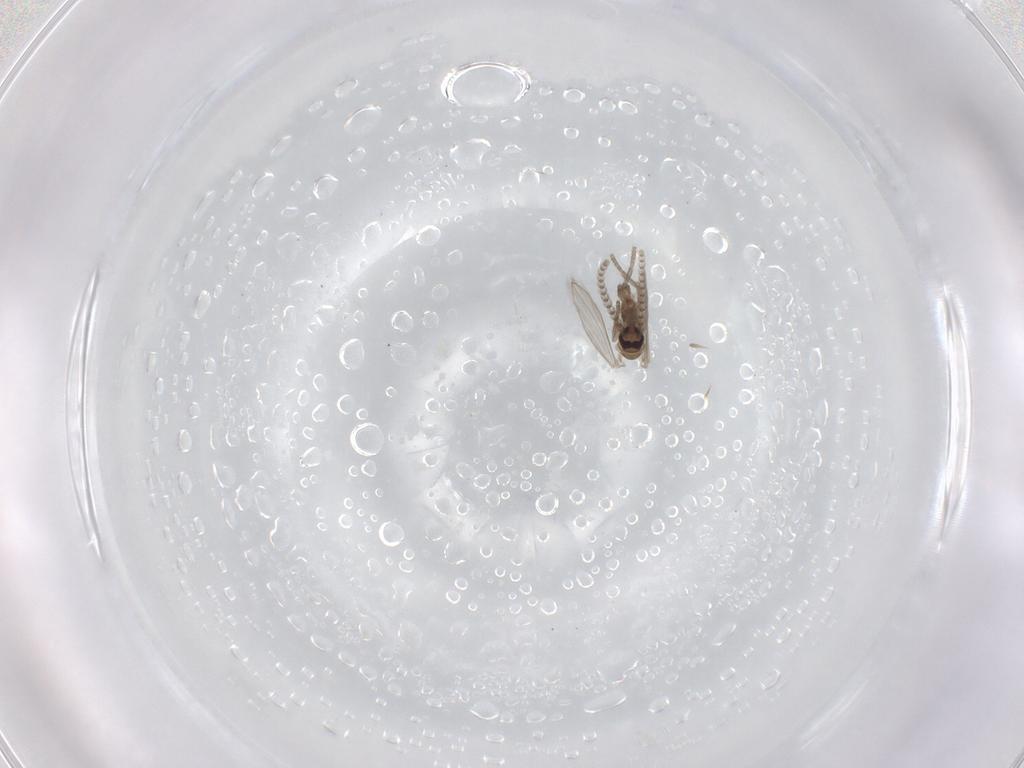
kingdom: Animalia
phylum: Arthropoda
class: Insecta
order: Diptera
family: Psychodidae
